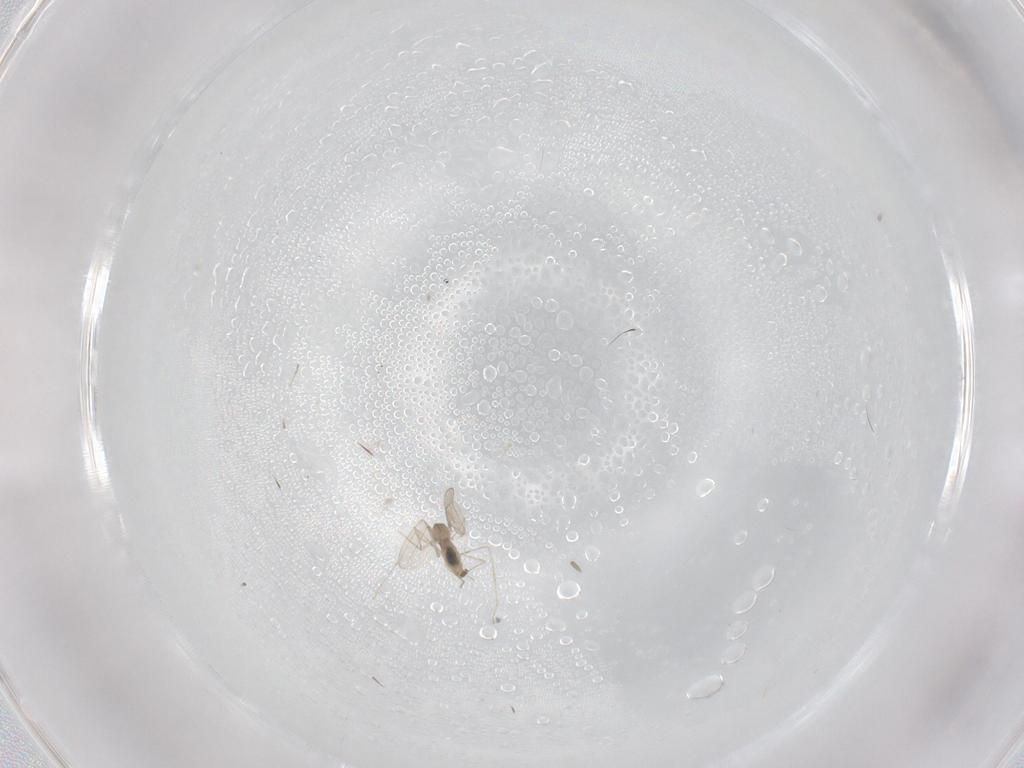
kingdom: Animalia
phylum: Arthropoda
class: Insecta
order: Diptera
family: Cecidomyiidae
